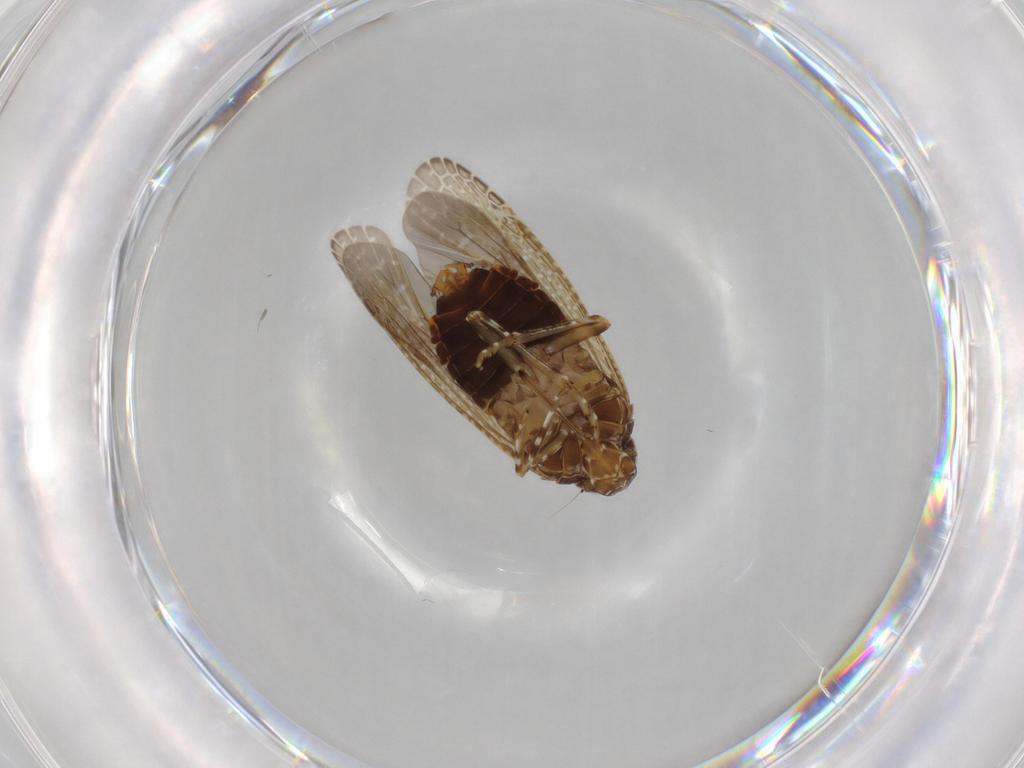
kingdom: Animalia
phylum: Arthropoda
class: Insecta
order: Hemiptera
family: Achilidae
